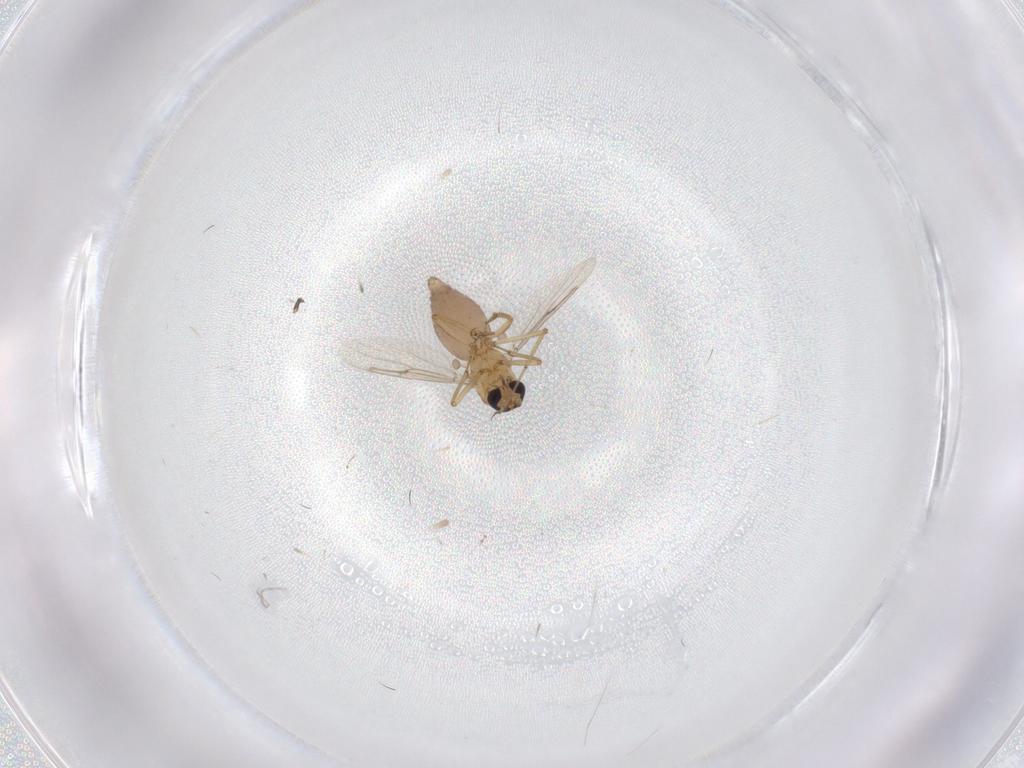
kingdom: Animalia
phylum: Arthropoda
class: Insecta
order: Diptera
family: Ceratopogonidae
